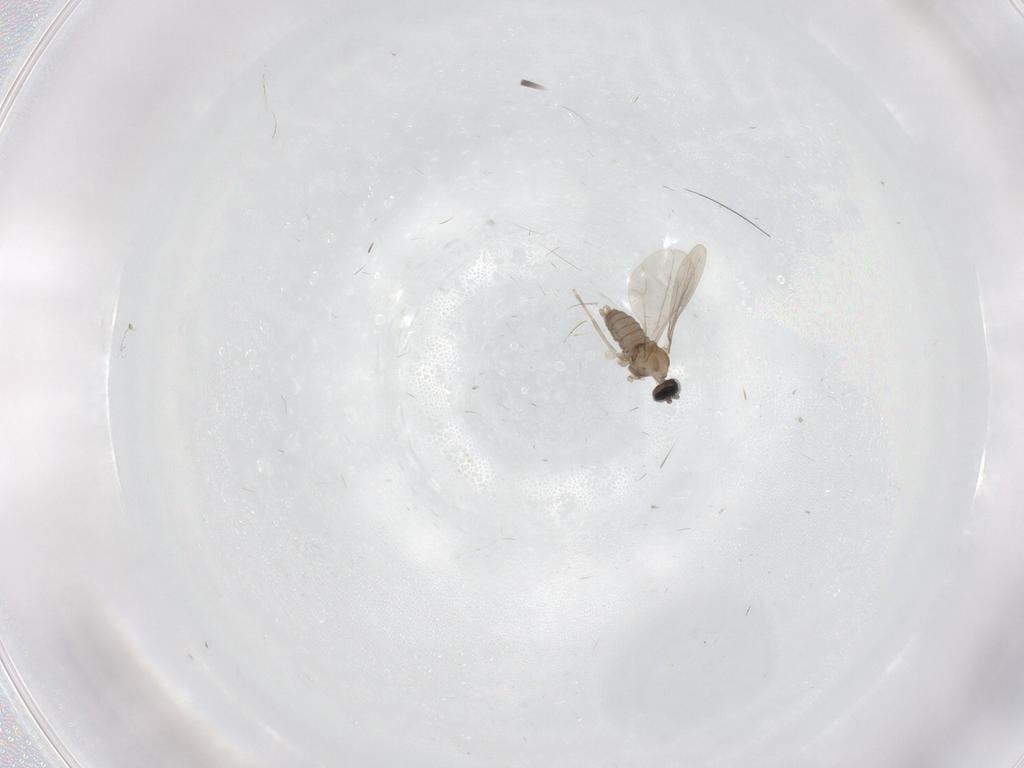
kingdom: Animalia
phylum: Arthropoda
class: Insecta
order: Diptera
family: Cecidomyiidae
